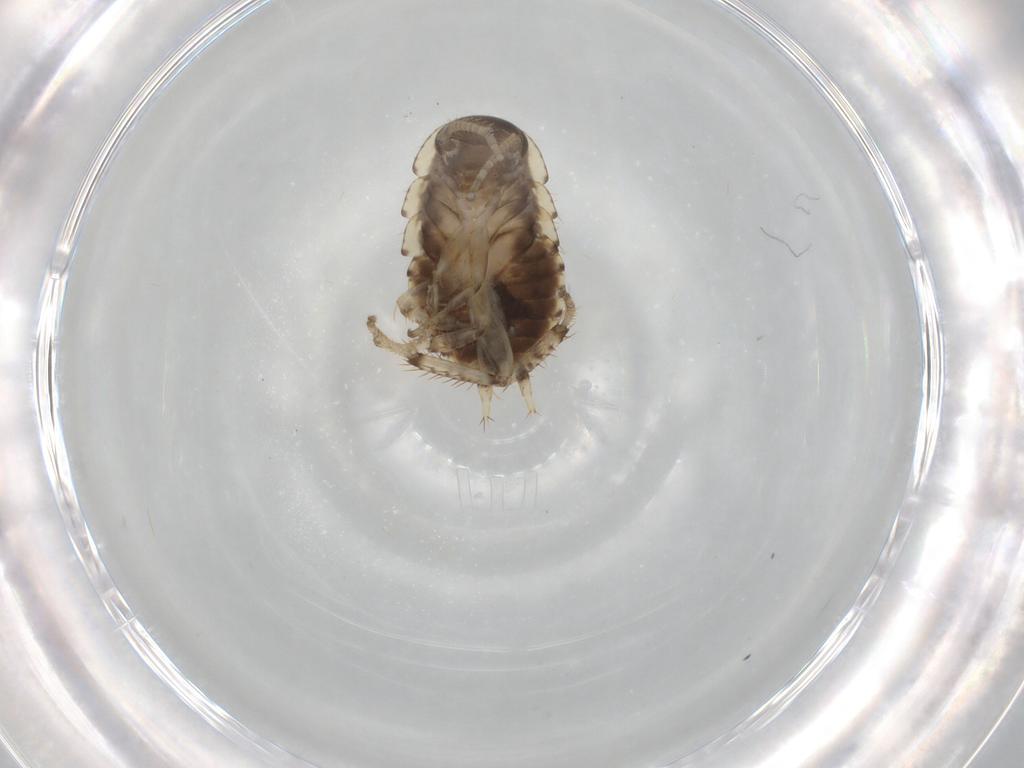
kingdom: Animalia
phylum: Arthropoda
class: Insecta
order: Blattodea
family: Blaberidae
